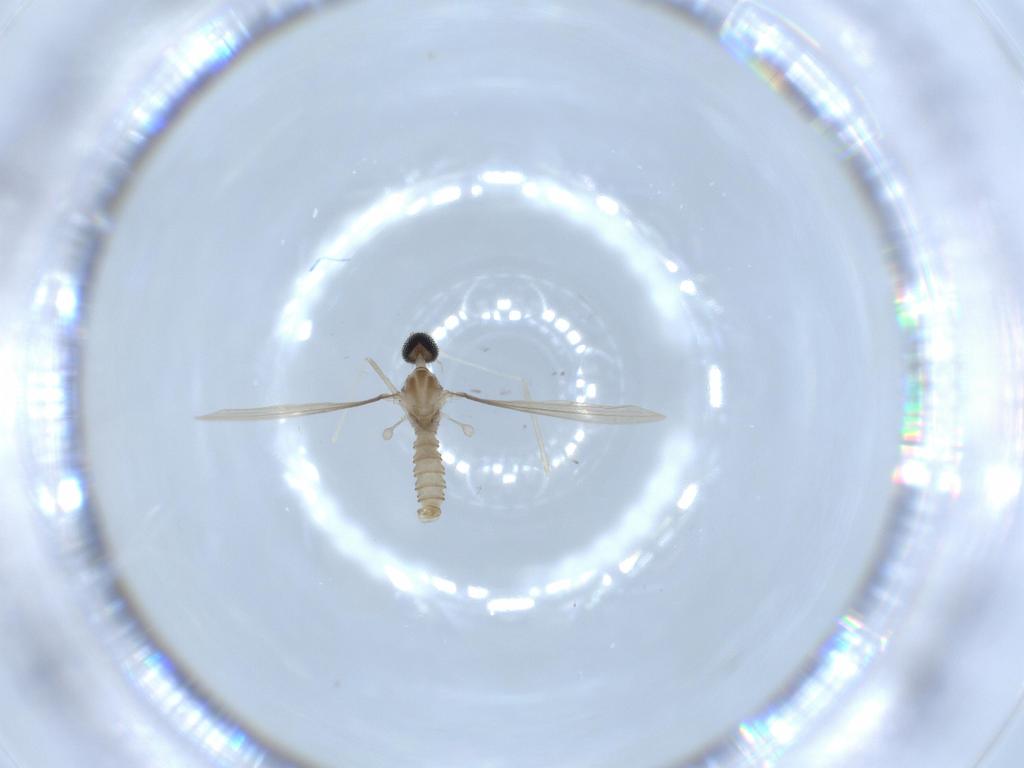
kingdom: Animalia
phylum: Arthropoda
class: Insecta
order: Diptera
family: Cecidomyiidae
